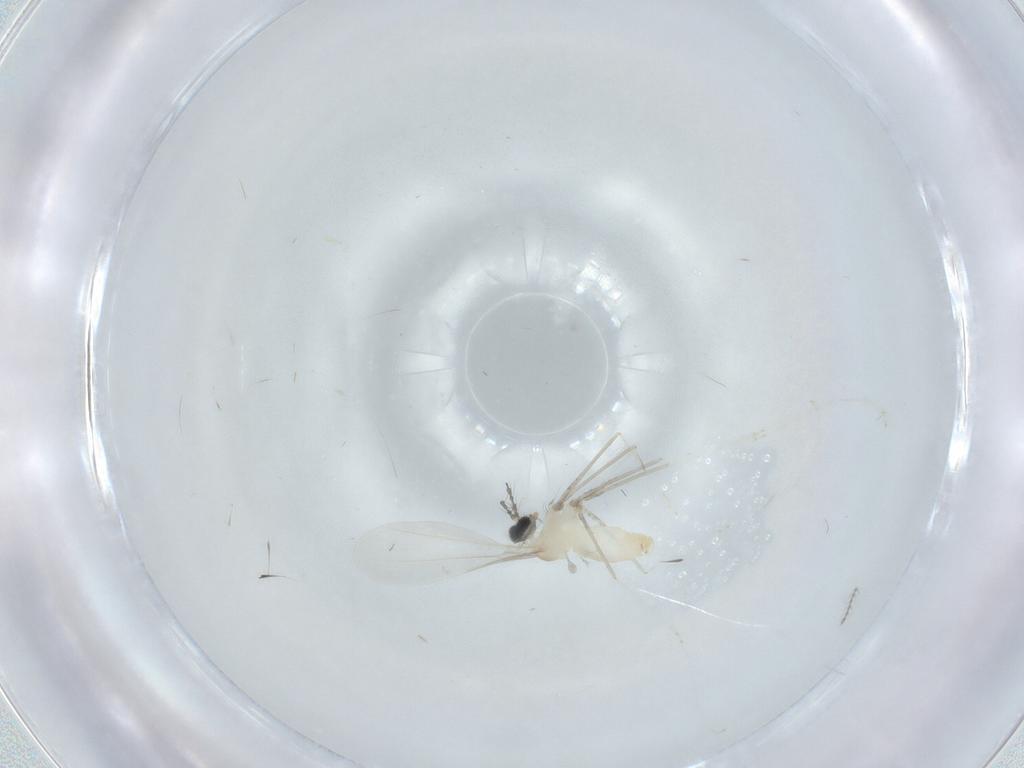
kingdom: Animalia
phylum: Arthropoda
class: Insecta
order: Diptera
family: Cecidomyiidae
